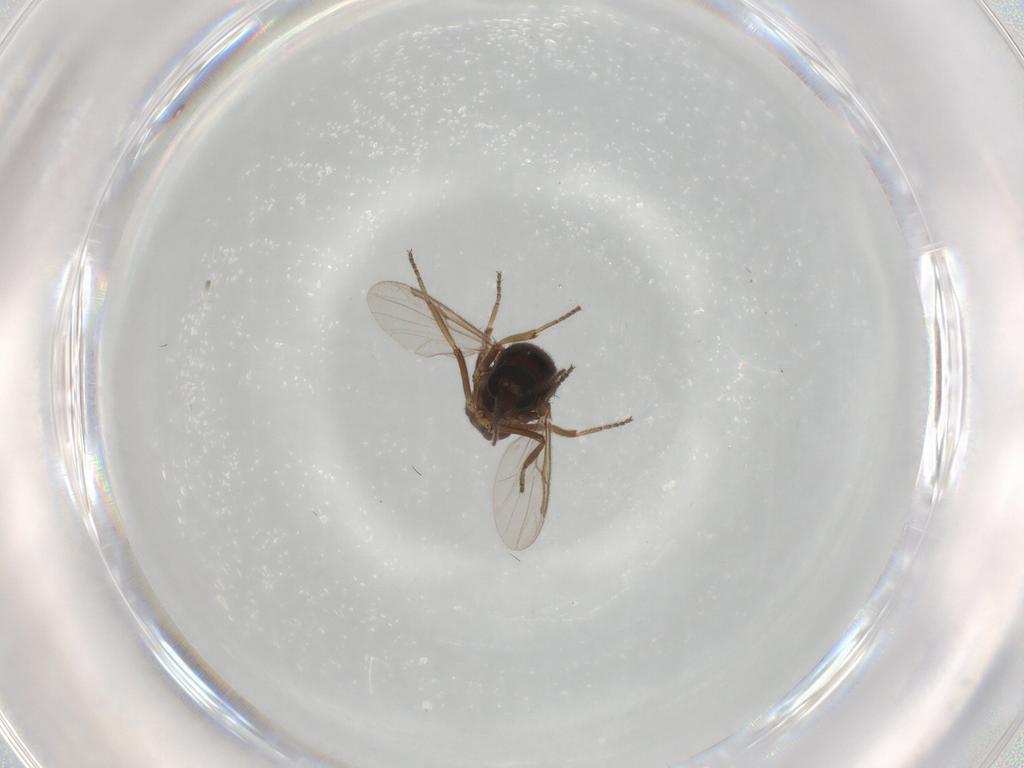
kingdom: Animalia
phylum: Arthropoda
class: Insecta
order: Diptera
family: Ceratopogonidae
